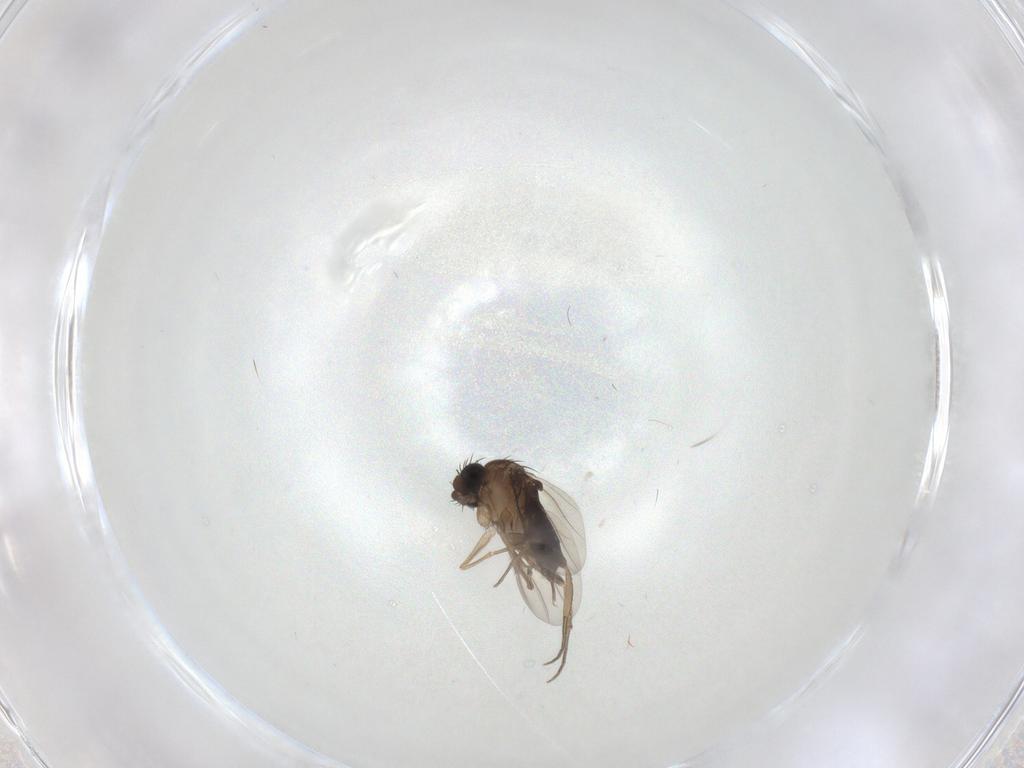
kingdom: Animalia
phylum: Arthropoda
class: Insecta
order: Diptera
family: Phoridae
